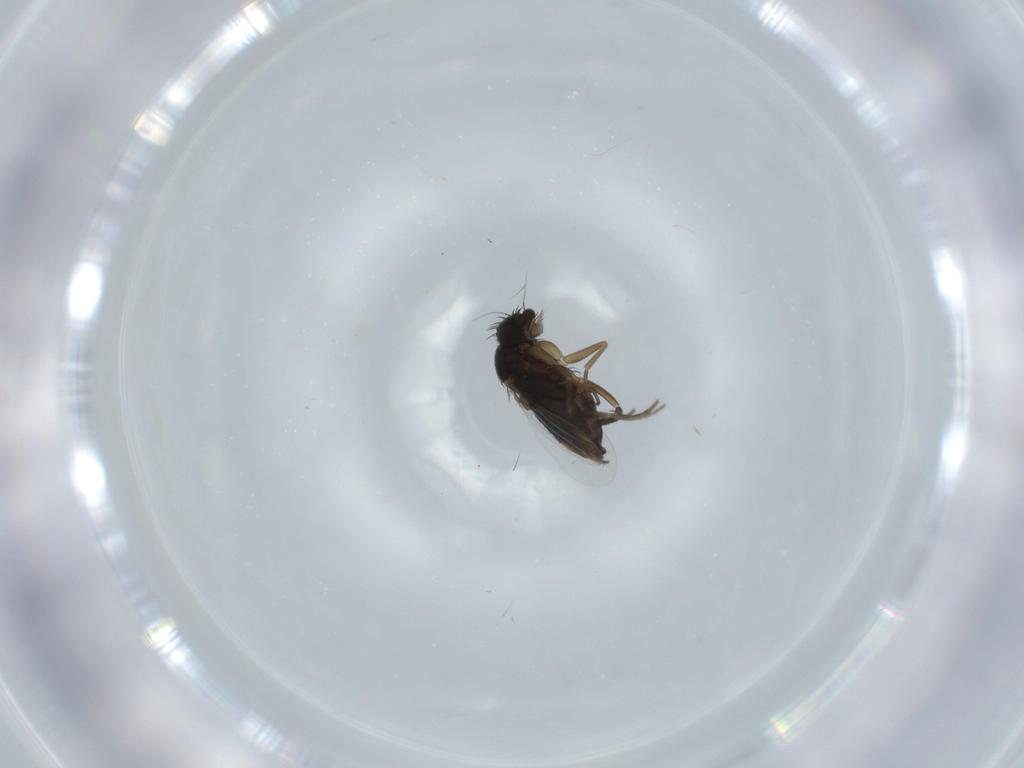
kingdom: Animalia
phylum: Arthropoda
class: Insecta
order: Diptera
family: Phoridae
